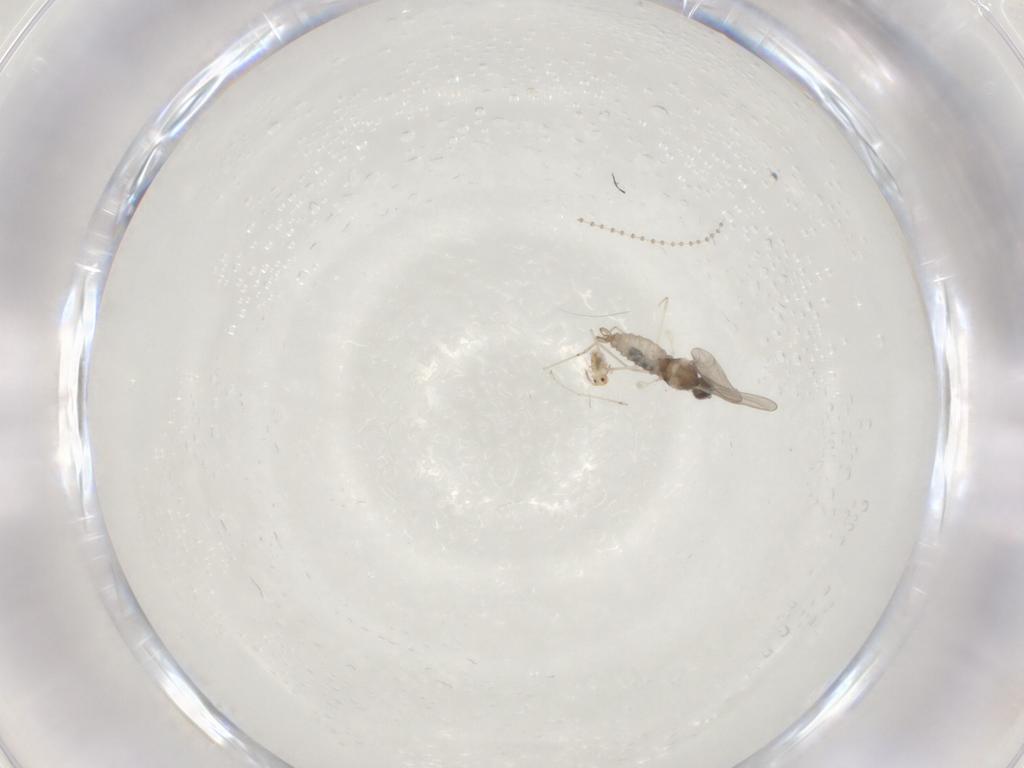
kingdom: Animalia
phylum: Arthropoda
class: Insecta
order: Diptera
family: Cecidomyiidae
